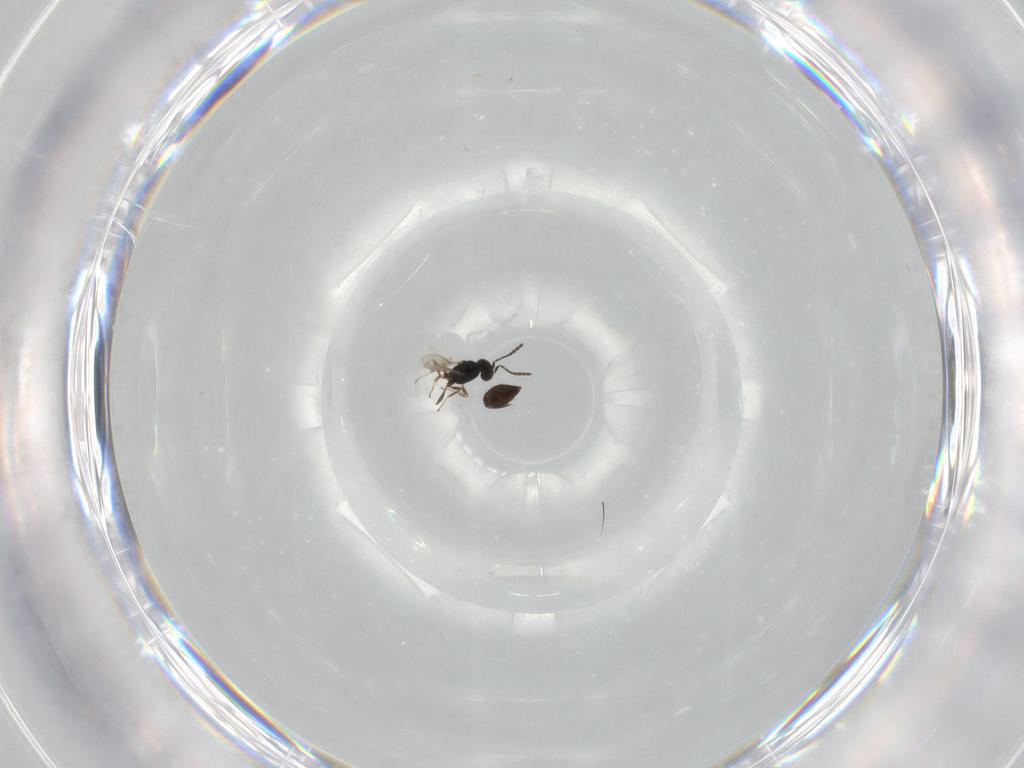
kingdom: Animalia
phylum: Arthropoda
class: Insecta
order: Hymenoptera
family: Scelionidae
